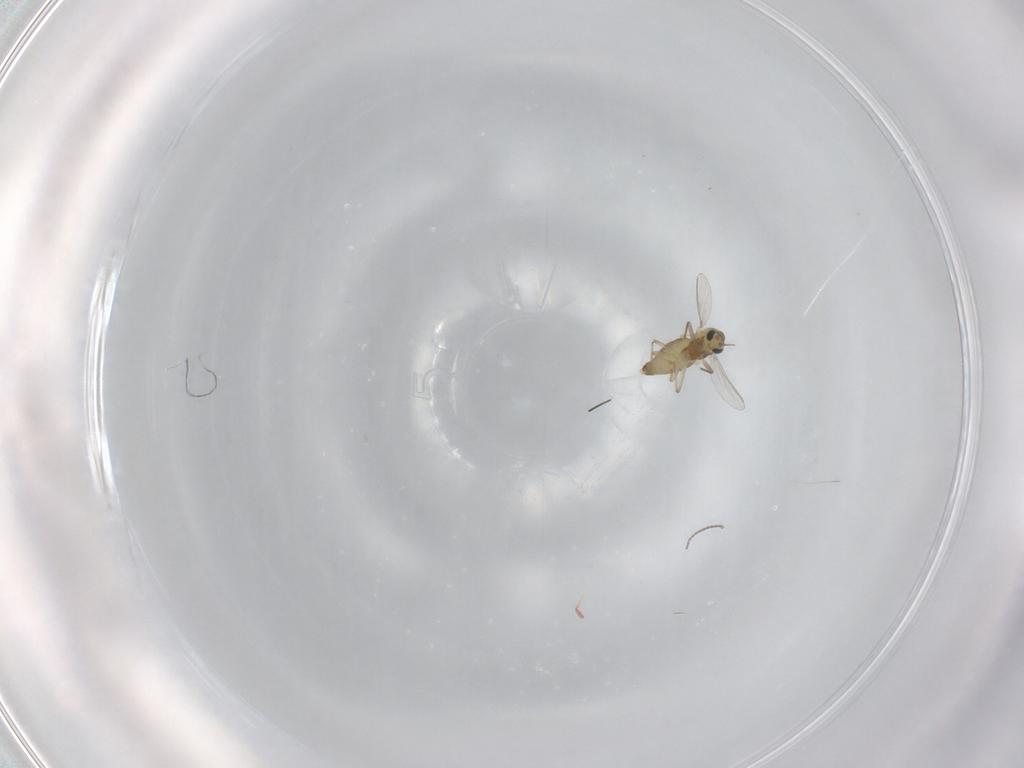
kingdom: Animalia
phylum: Arthropoda
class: Insecta
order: Diptera
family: Chironomidae
